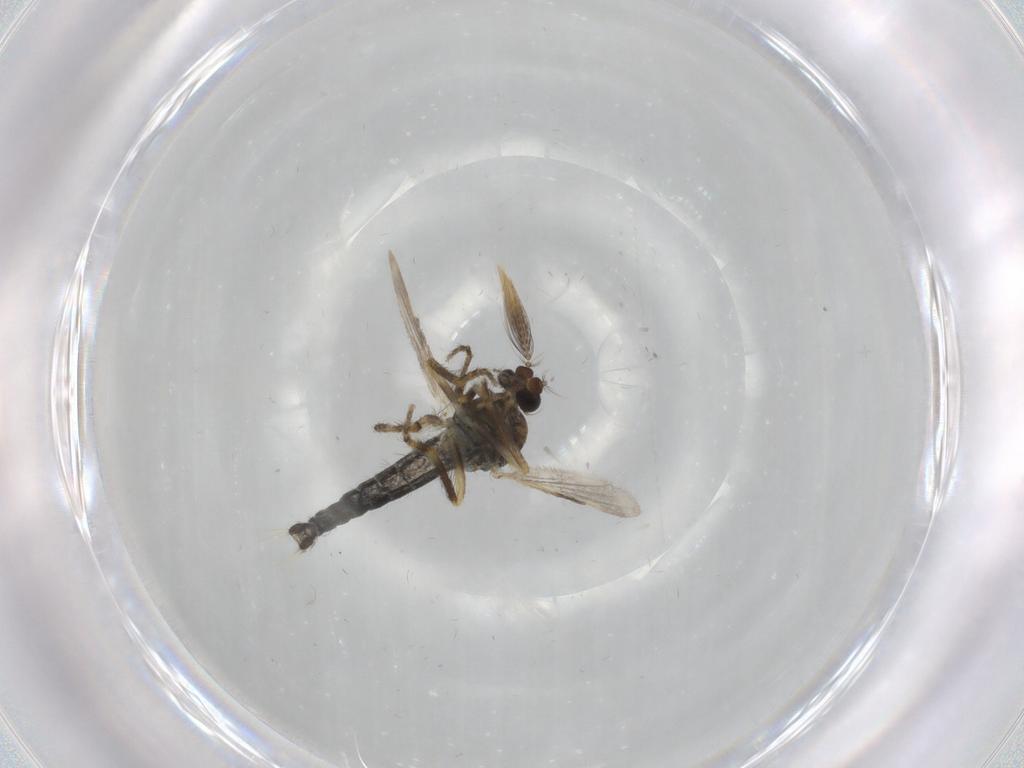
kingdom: Animalia
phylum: Arthropoda
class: Insecta
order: Diptera
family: Ceratopogonidae
